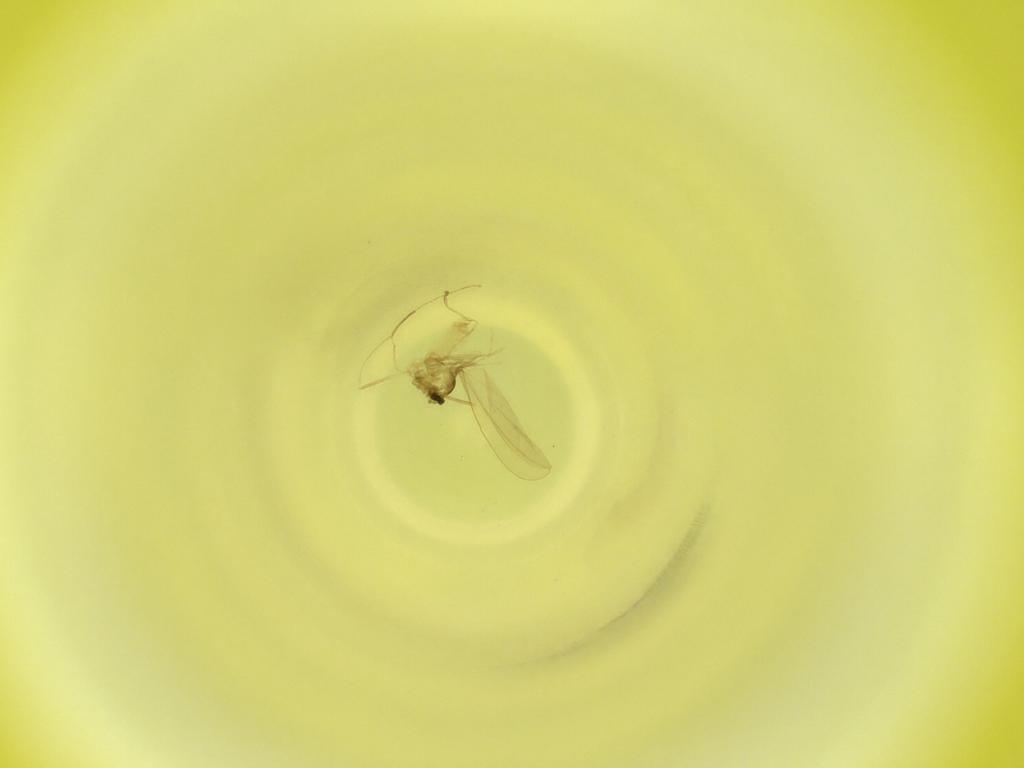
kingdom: Animalia
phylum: Arthropoda
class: Insecta
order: Diptera
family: Cecidomyiidae
